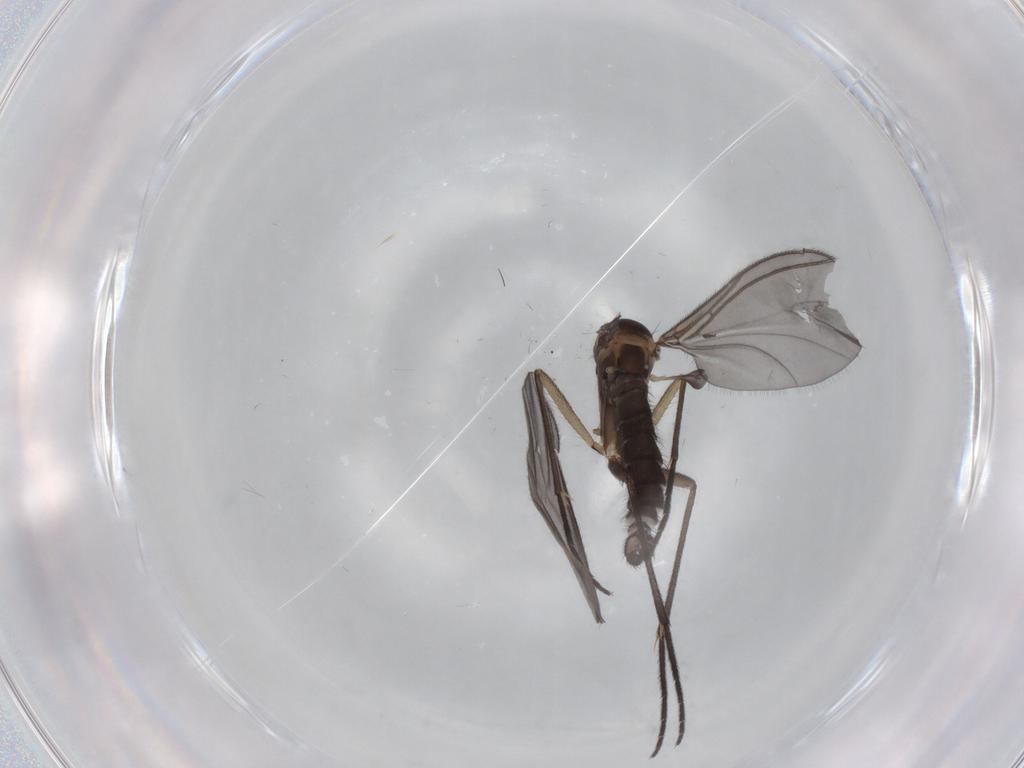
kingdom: Animalia
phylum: Arthropoda
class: Insecta
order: Diptera
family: Sciaridae
